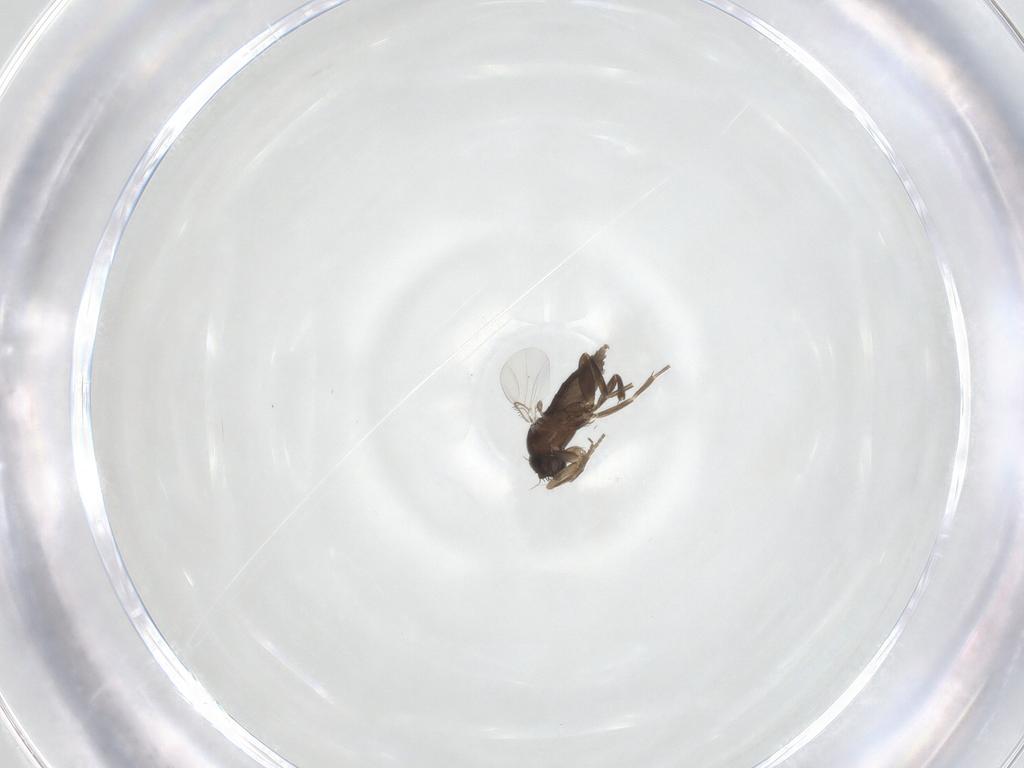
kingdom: Animalia
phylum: Arthropoda
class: Insecta
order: Diptera
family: Phoridae
